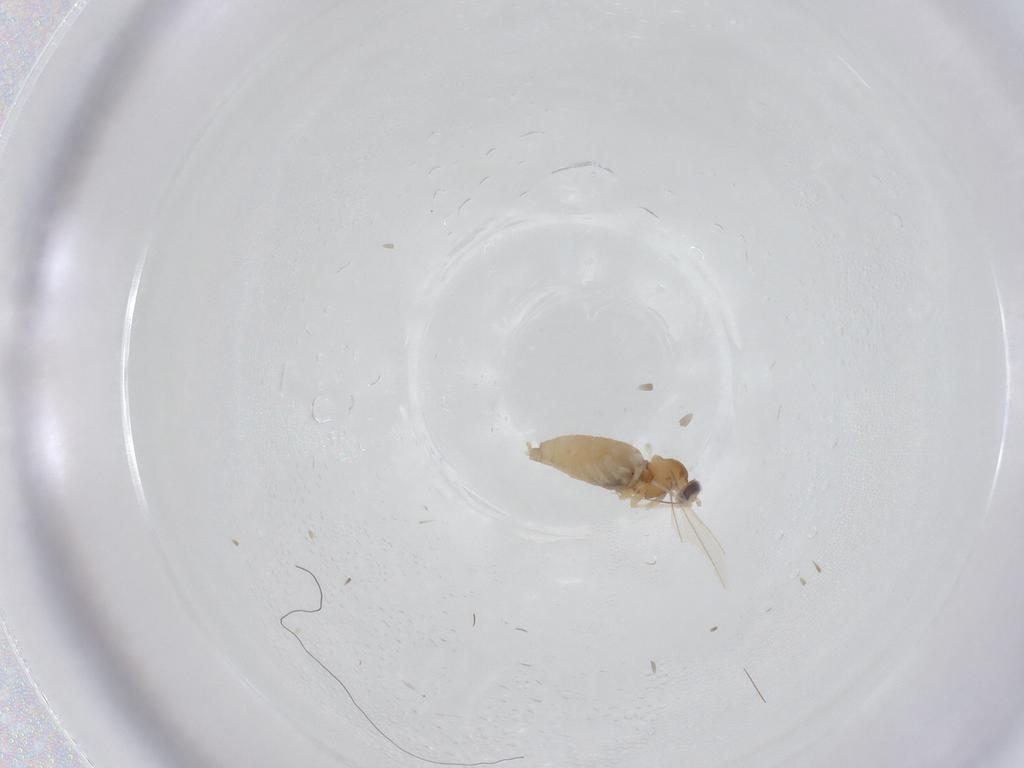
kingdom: Animalia
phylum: Arthropoda
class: Insecta
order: Diptera
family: Cecidomyiidae
